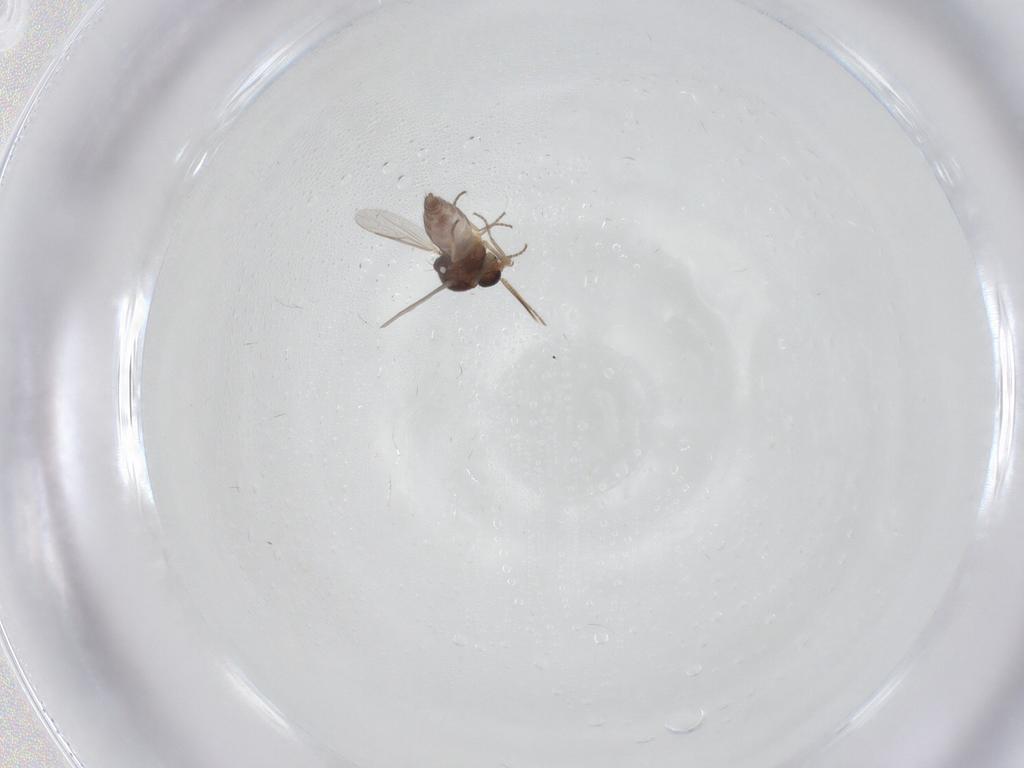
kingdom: Animalia
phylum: Arthropoda
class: Insecta
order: Diptera
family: Ceratopogonidae
